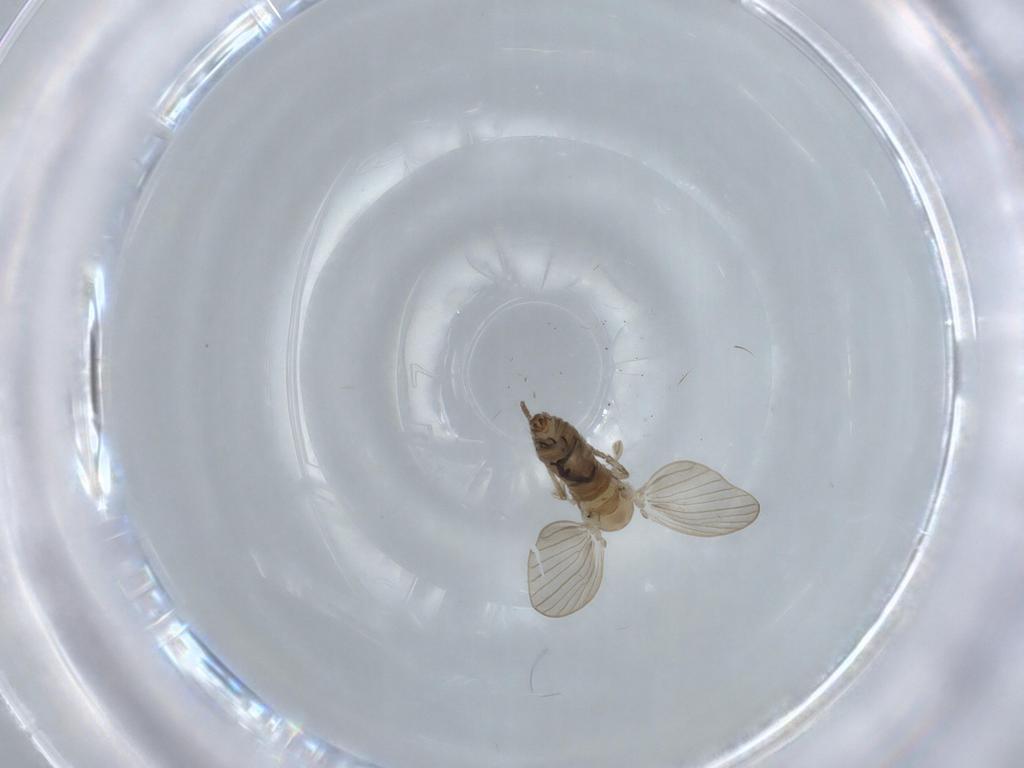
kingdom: Animalia
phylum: Arthropoda
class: Insecta
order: Diptera
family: Psychodidae
